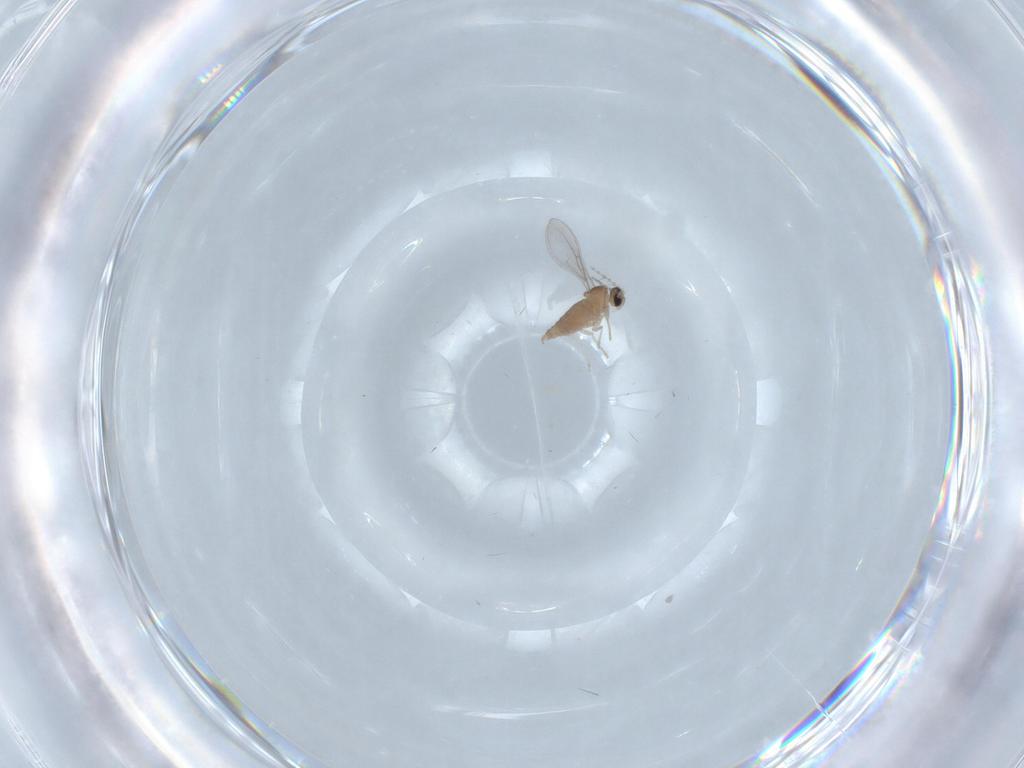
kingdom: Animalia
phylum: Arthropoda
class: Insecta
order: Diptera
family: Cecidomyiidae
